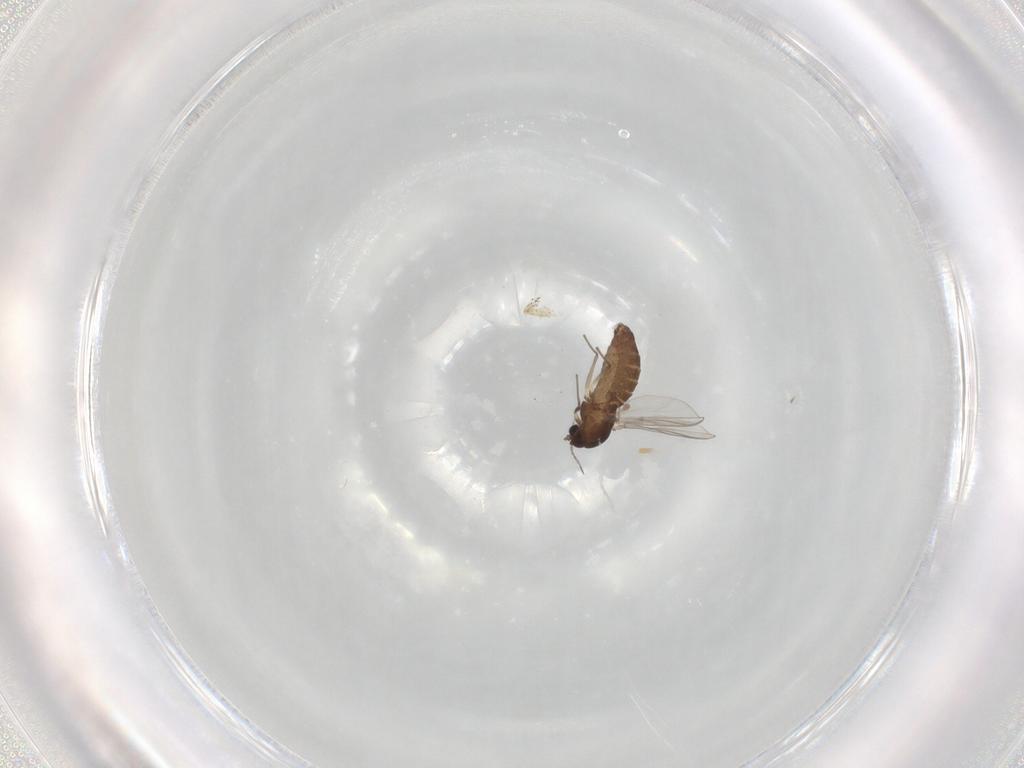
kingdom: Animalia
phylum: Arthropoda
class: Insecta
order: Diptera
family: Chironomidae
